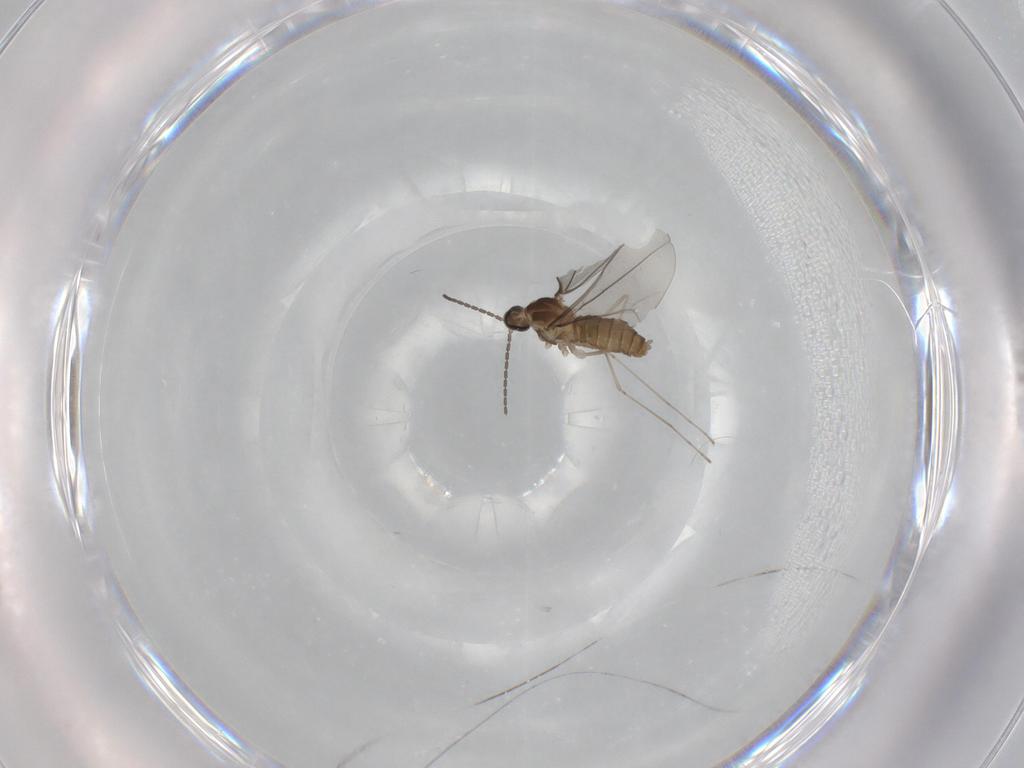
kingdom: Animalia
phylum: Arthropoda
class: Insecta
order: Diptera
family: Cecidomyiidae
